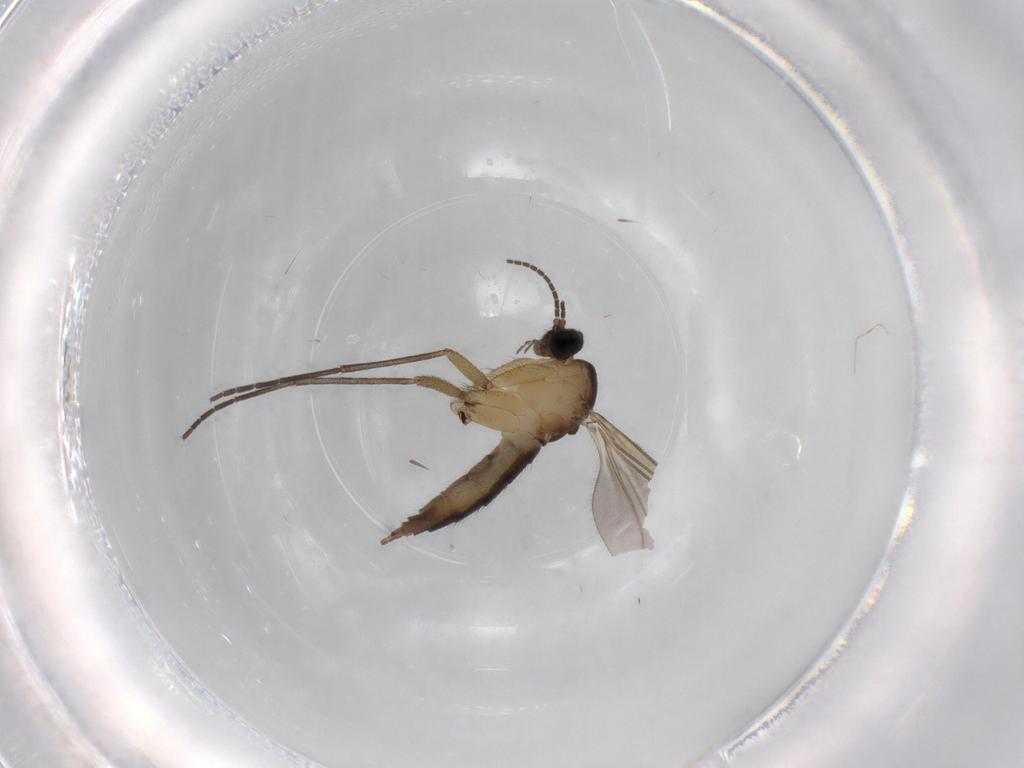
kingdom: Animalia
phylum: Arthropoda
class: Insecta
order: Diptera
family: Sciaridae
